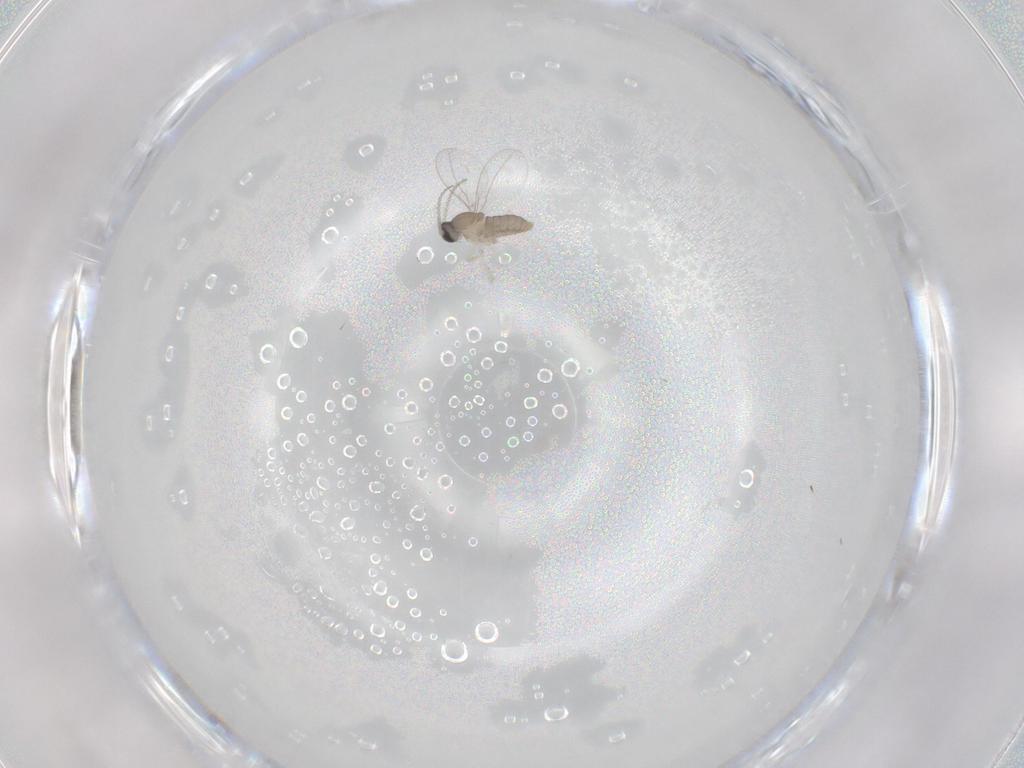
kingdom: Animalia
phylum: Arthropoda
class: Insecta
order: Diptera
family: Cecidomyiidae
